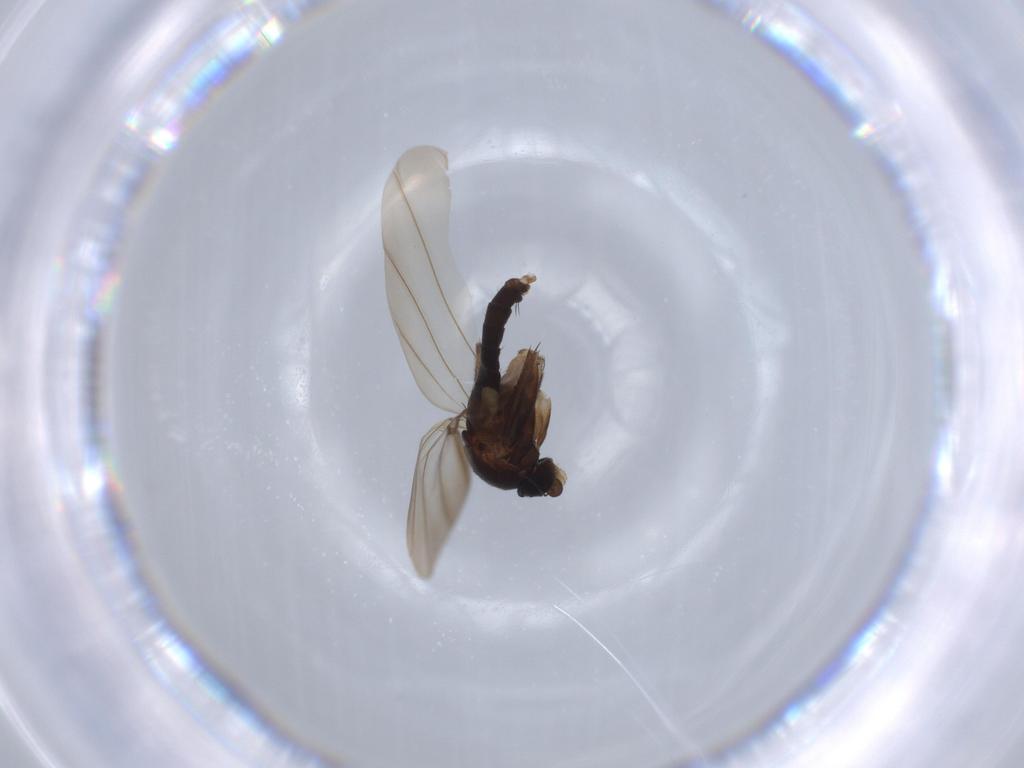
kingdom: Animalia
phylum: Arthropoda
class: Insecta
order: Diptera
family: Phoridae
